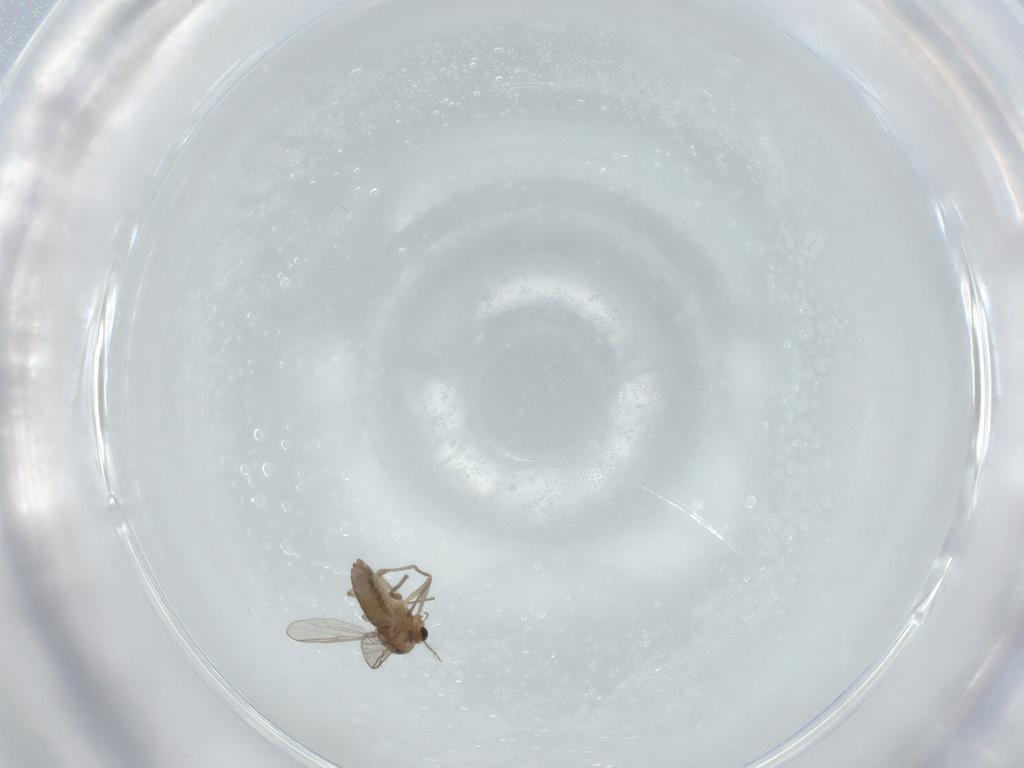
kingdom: Animalia
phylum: Arthropoda
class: Insecta
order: Diptera
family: Chironomidae
